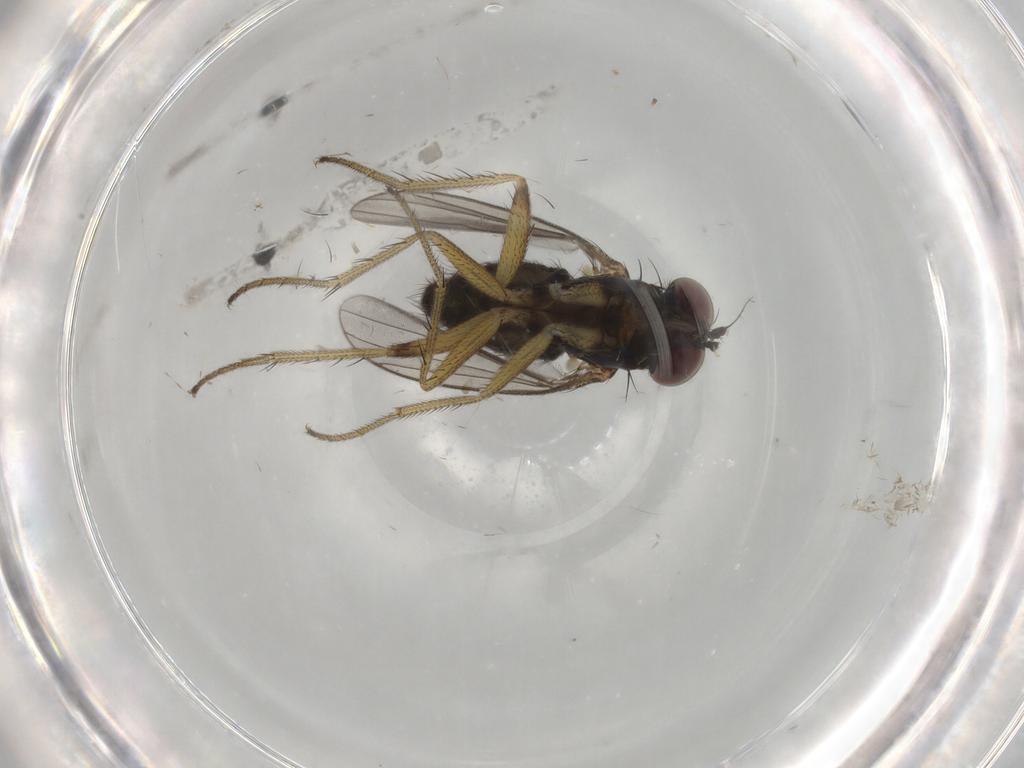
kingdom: Animalia
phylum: Arthropoda
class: Insecta
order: Diptera
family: Dolichopodidae
